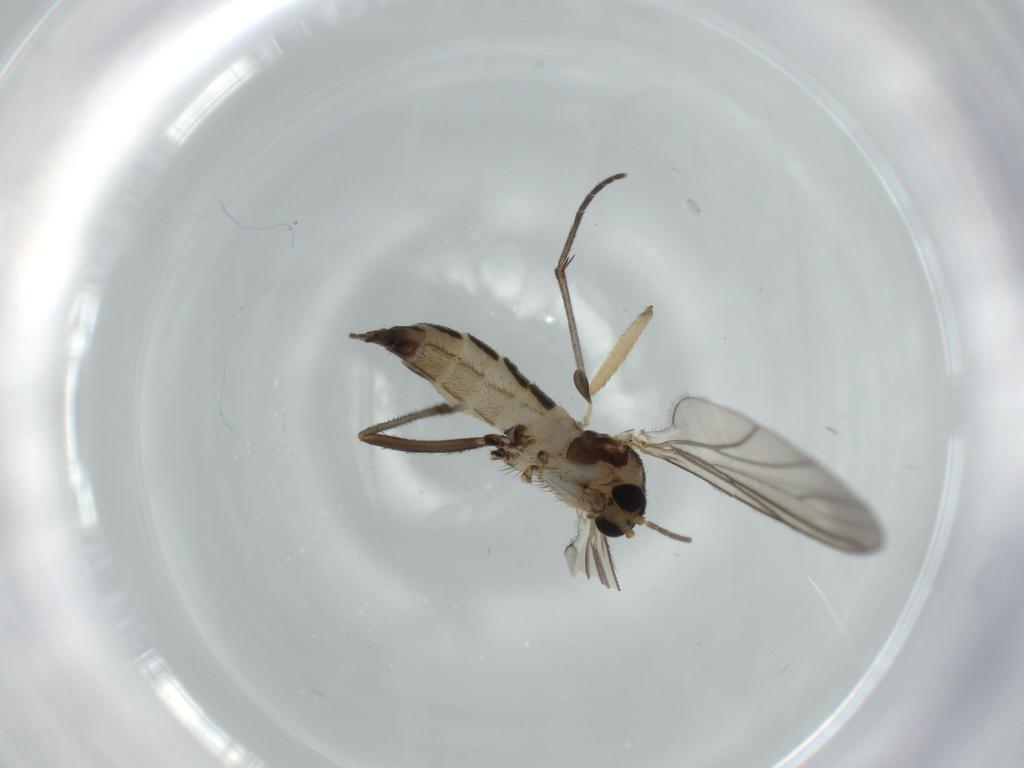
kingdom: Animalia
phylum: Arthropoda
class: Insecta
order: Diptera
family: Sciaridae
